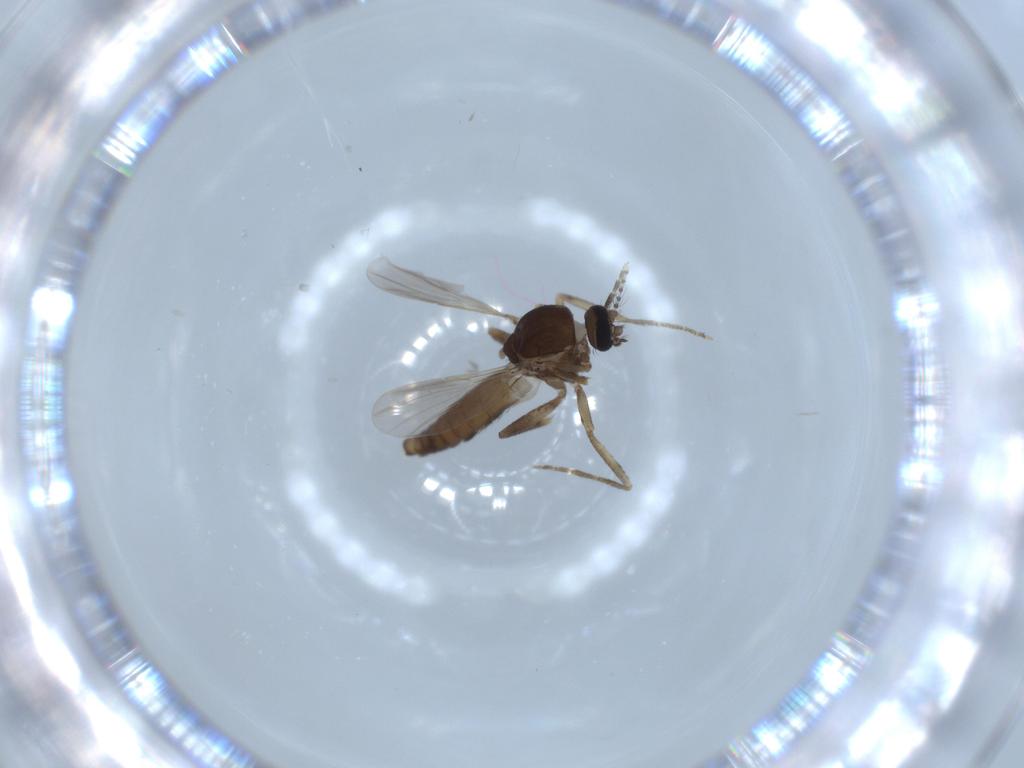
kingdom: Animalia
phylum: Arthropoda
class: Insecta
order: Diptera
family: Ceratopogonidae
